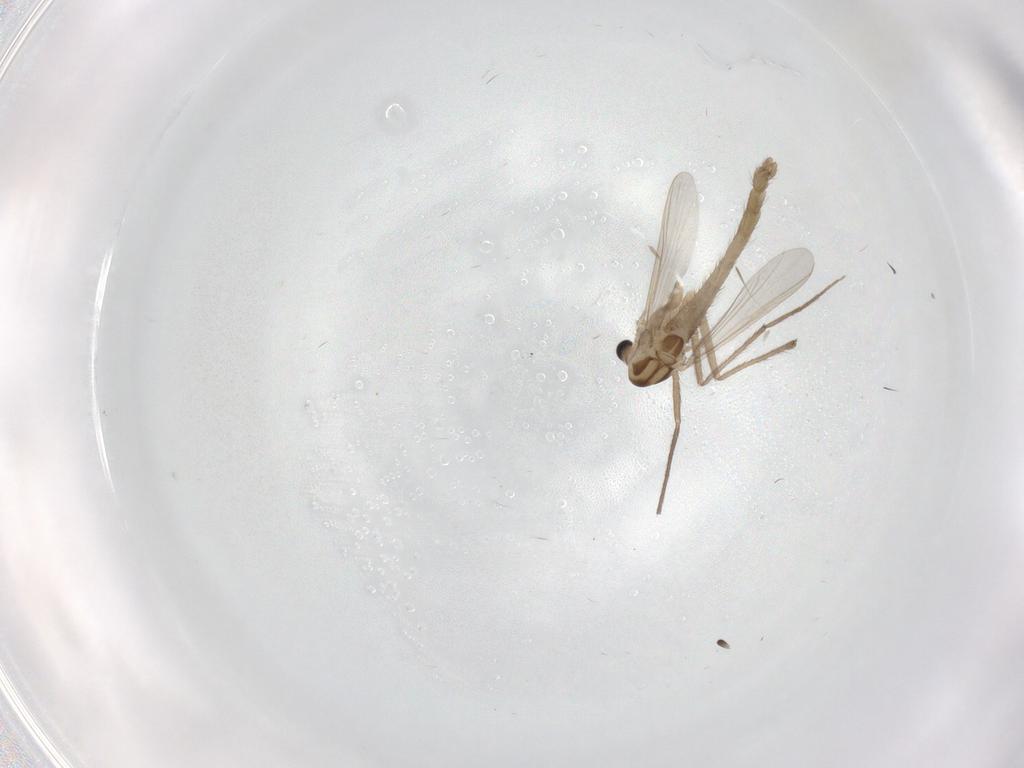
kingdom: Animalia
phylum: Arthropoda
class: Insecta
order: Diptera
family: Chironomidae
